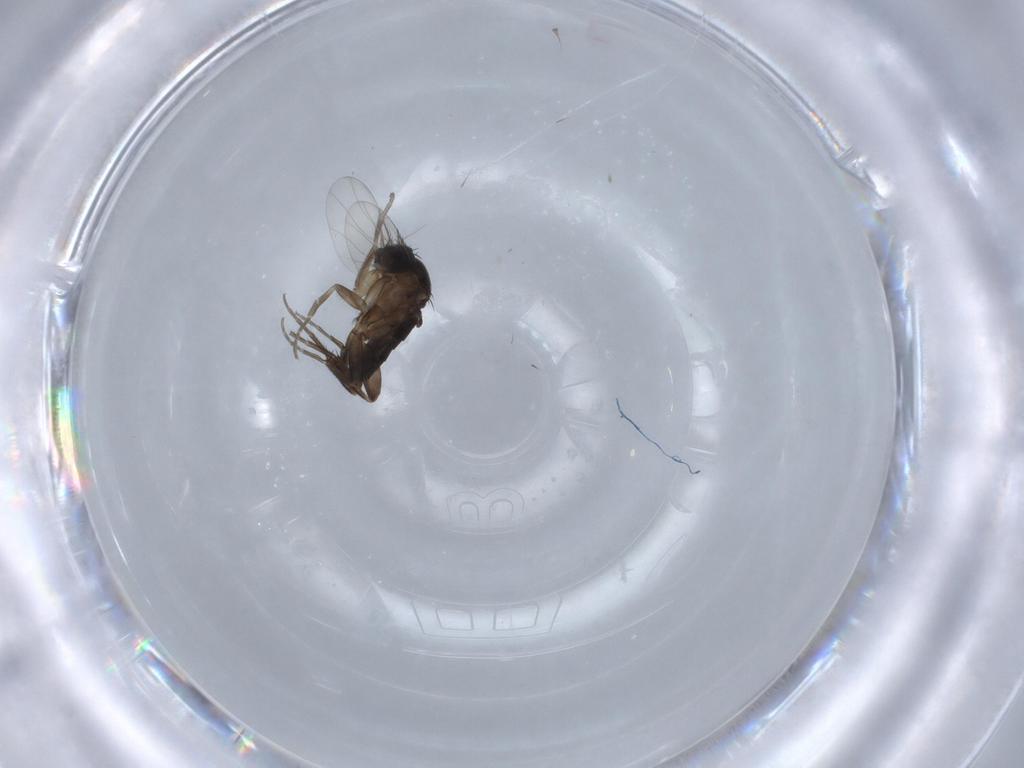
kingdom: Animalia
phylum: Arthropoda
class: Insecta
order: Diptera
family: Phoridae
